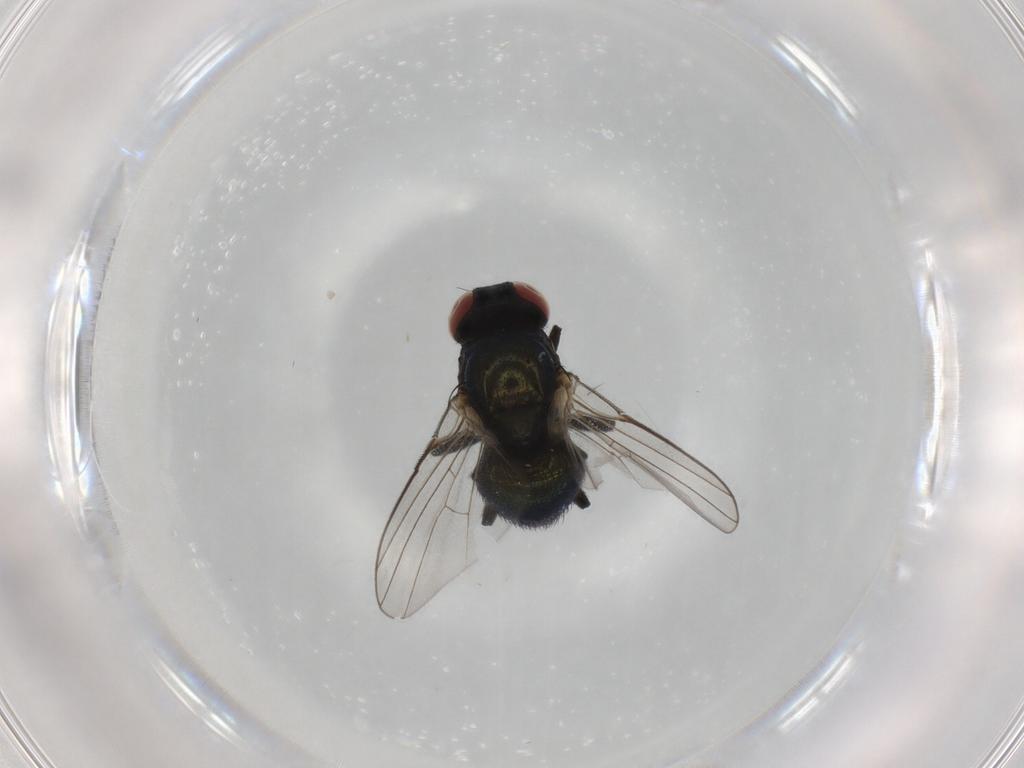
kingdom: Animalia
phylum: Arthropoda
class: Insecta
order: Diptera
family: Agromyzidae
